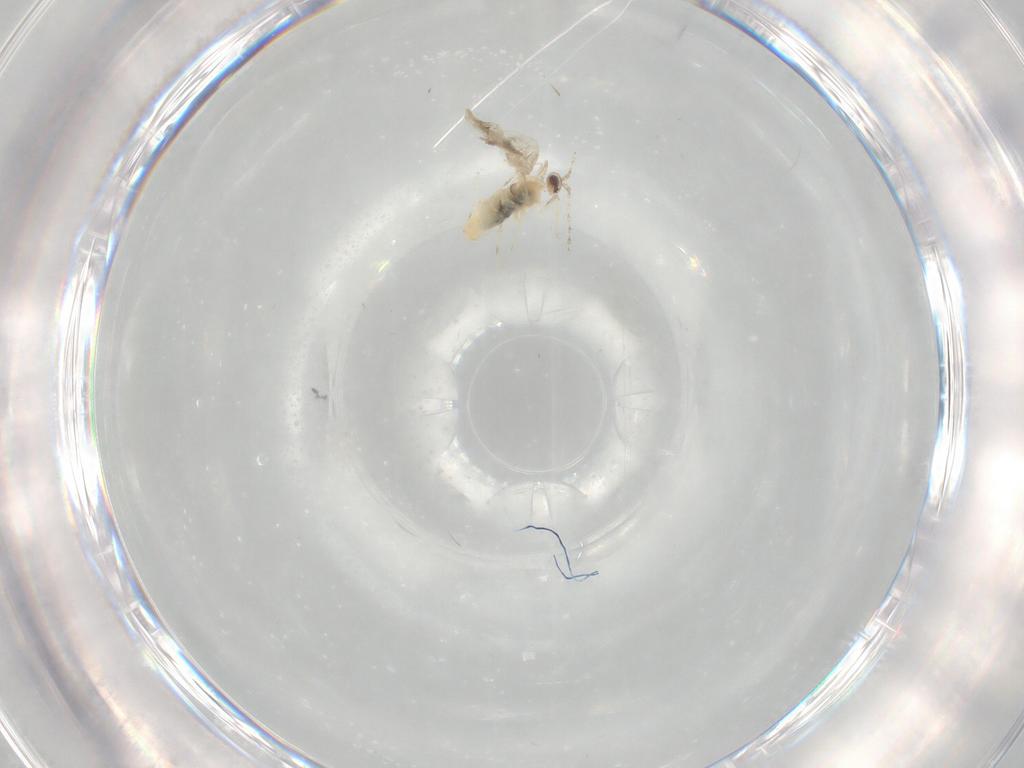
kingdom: Animalia
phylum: Arthropoda
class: Insecta
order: Diptera
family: Cecidomyiidae
